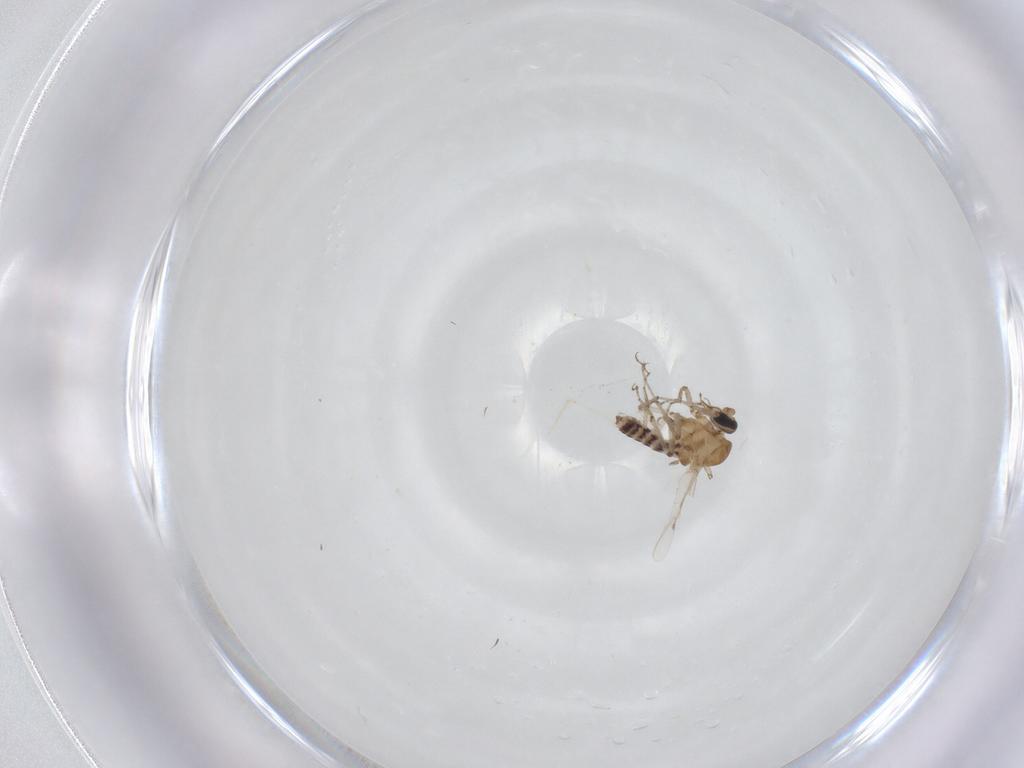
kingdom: Animalia
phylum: Arthropoda
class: Insecta
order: Diptera
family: Ceratopogonidae
